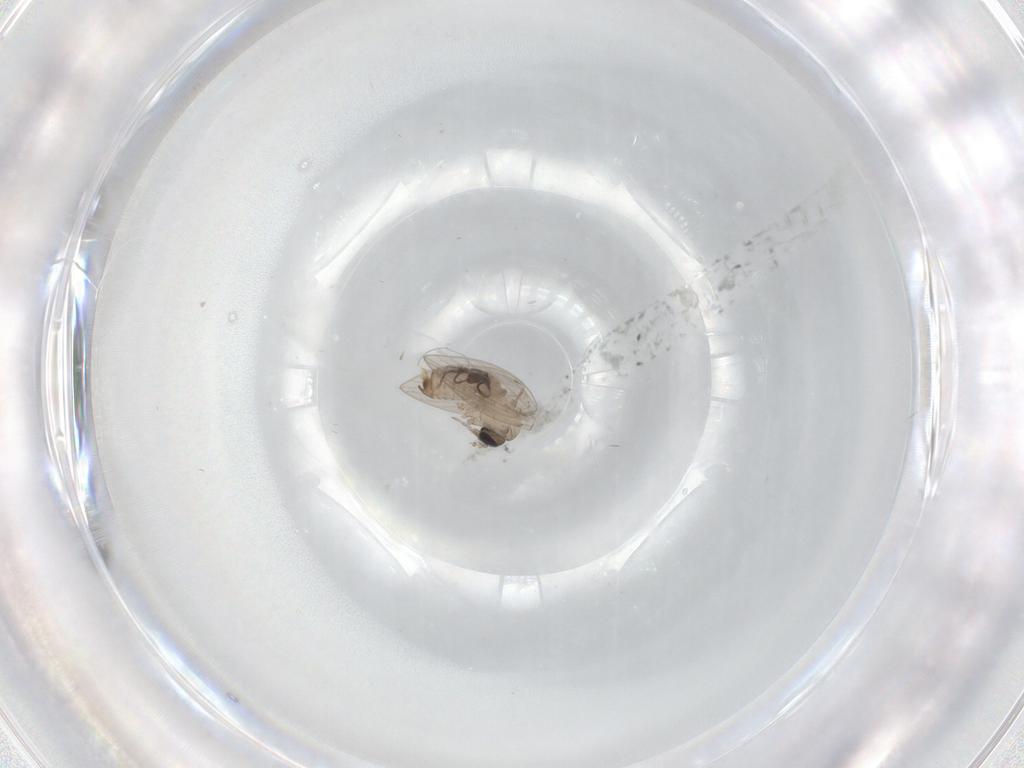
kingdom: Animalia
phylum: Arthropoda
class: Insecta
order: Diptera
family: Psychodidae
